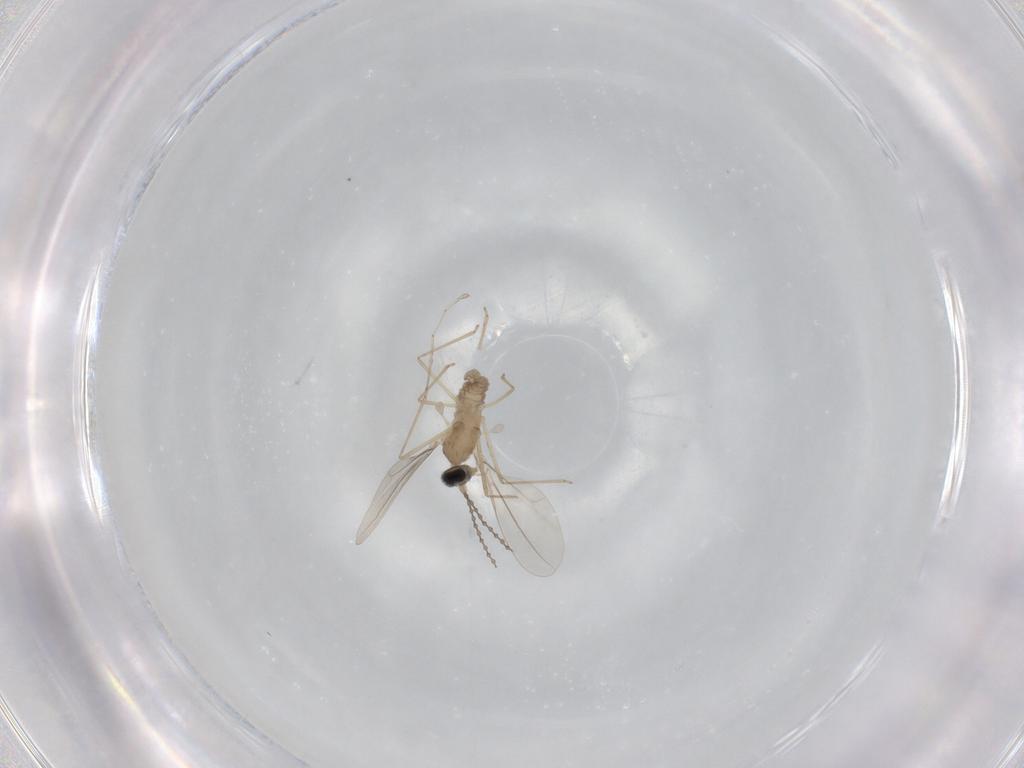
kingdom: Animalia
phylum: Arthropoda
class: Insecta
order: Diptera
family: Cecidomyiidae
